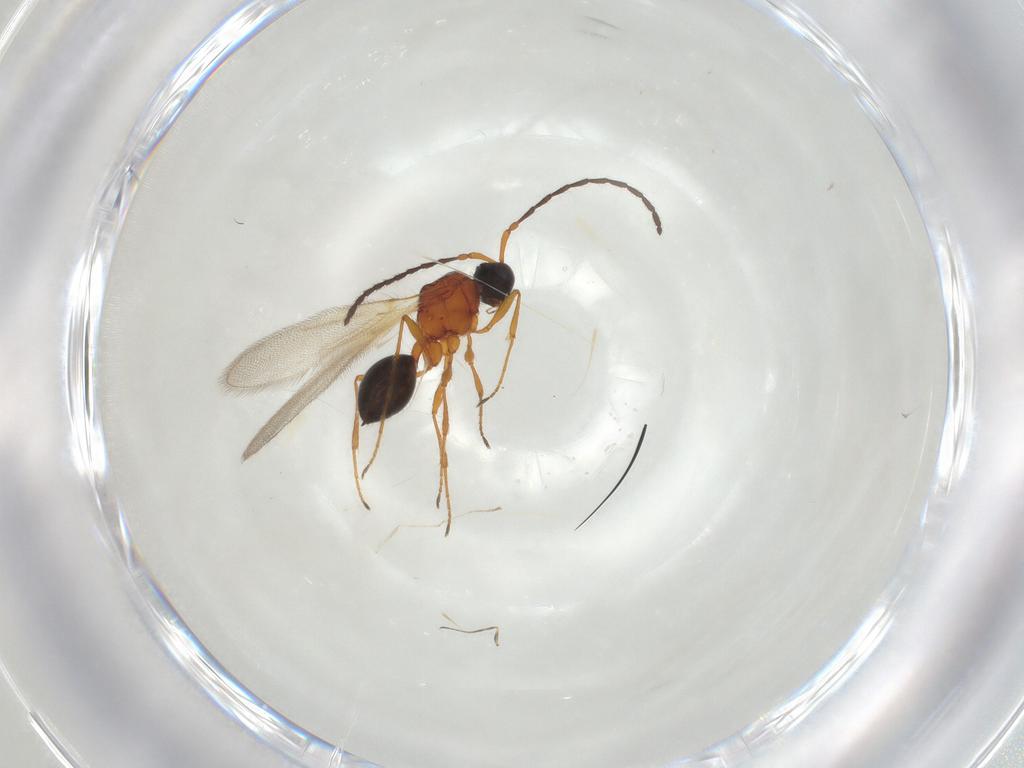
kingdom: Animalia
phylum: Arthropoda
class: Insecta
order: Hymenoptera
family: Diapriidae
